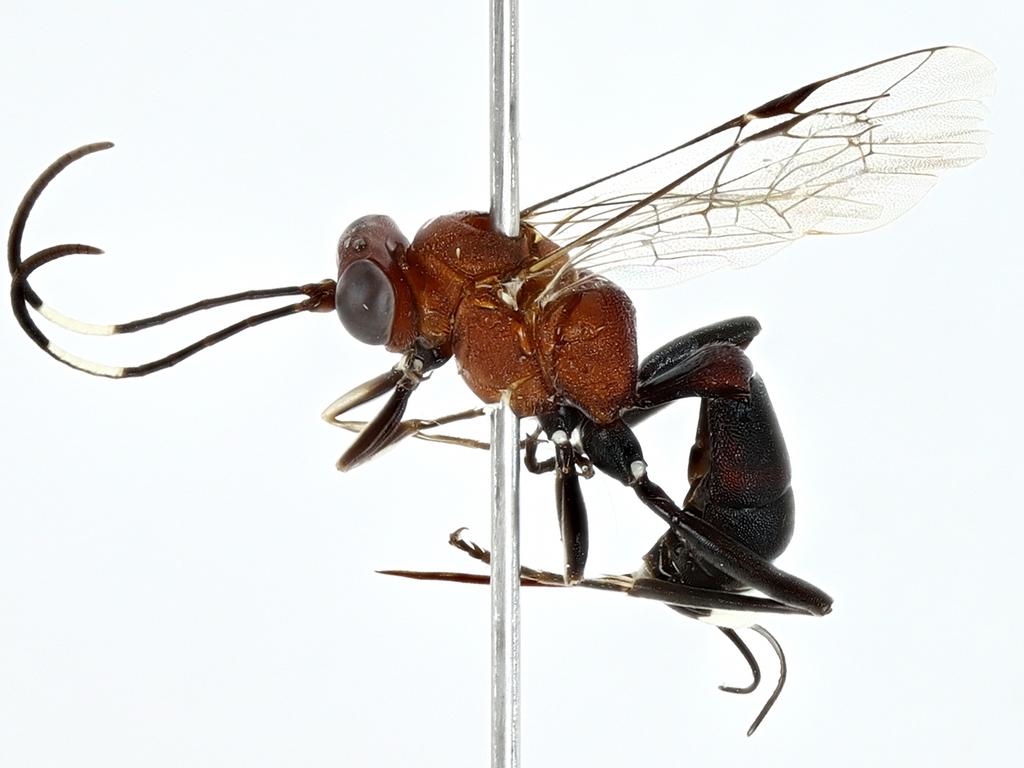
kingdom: Animalia
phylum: Arthropoda
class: Insecta
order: Hymenoptera
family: Ichneumonidae
